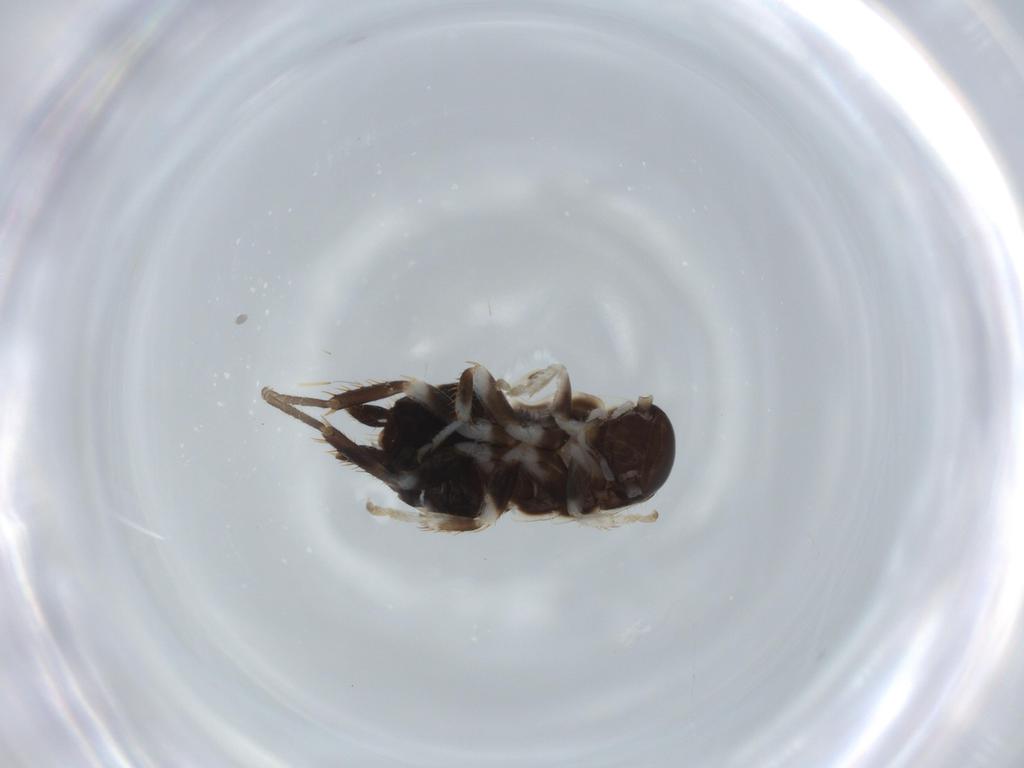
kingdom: Animalia
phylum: Arthropoda
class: Insecta
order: Blattodea
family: Ectobiidae
